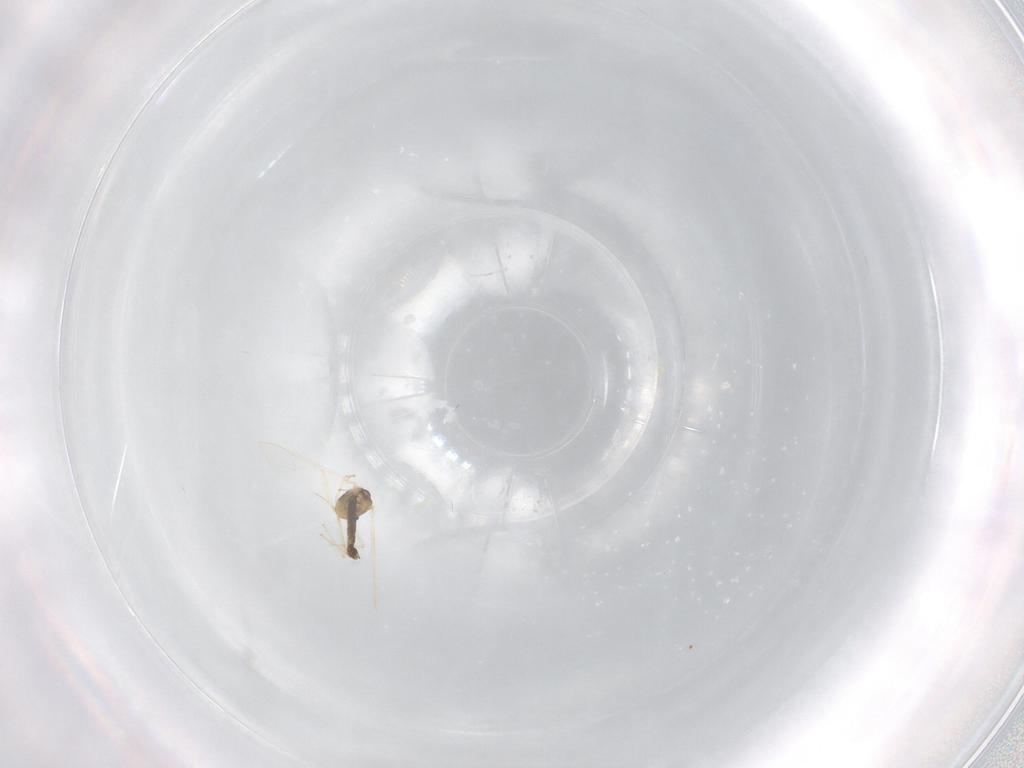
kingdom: Animalia
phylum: Arthropoda
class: Insecta
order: Diptera
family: Chironomidae
